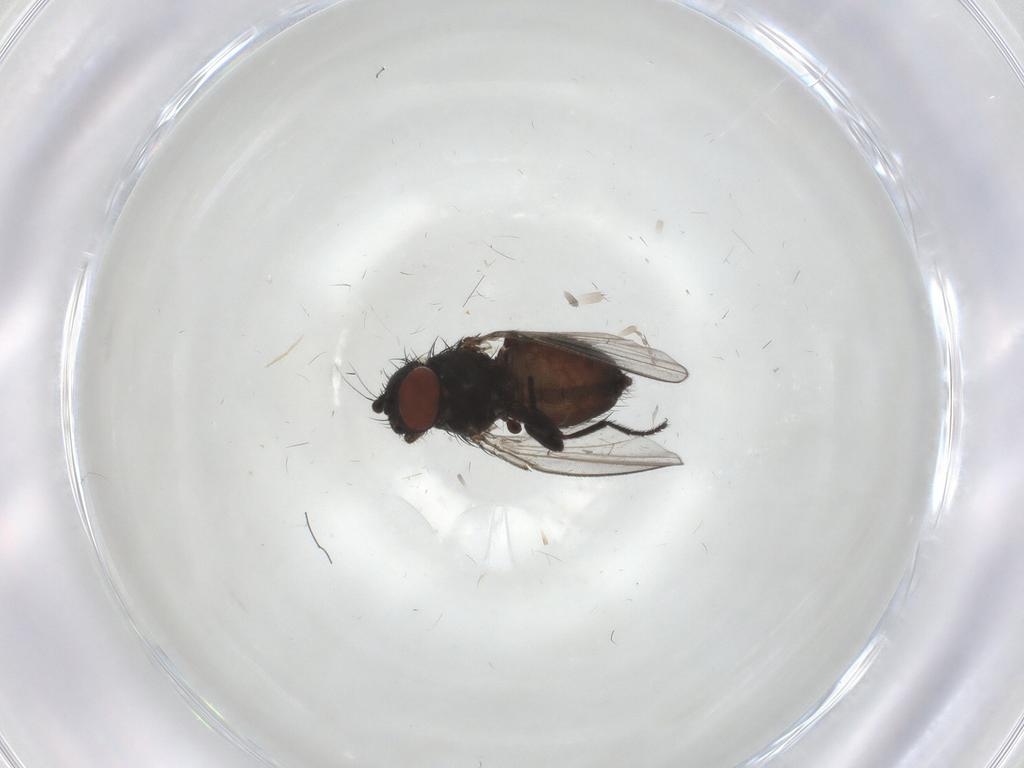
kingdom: Animalia
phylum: Arthropoda
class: Insecta
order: Diptera
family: Milichiidae
